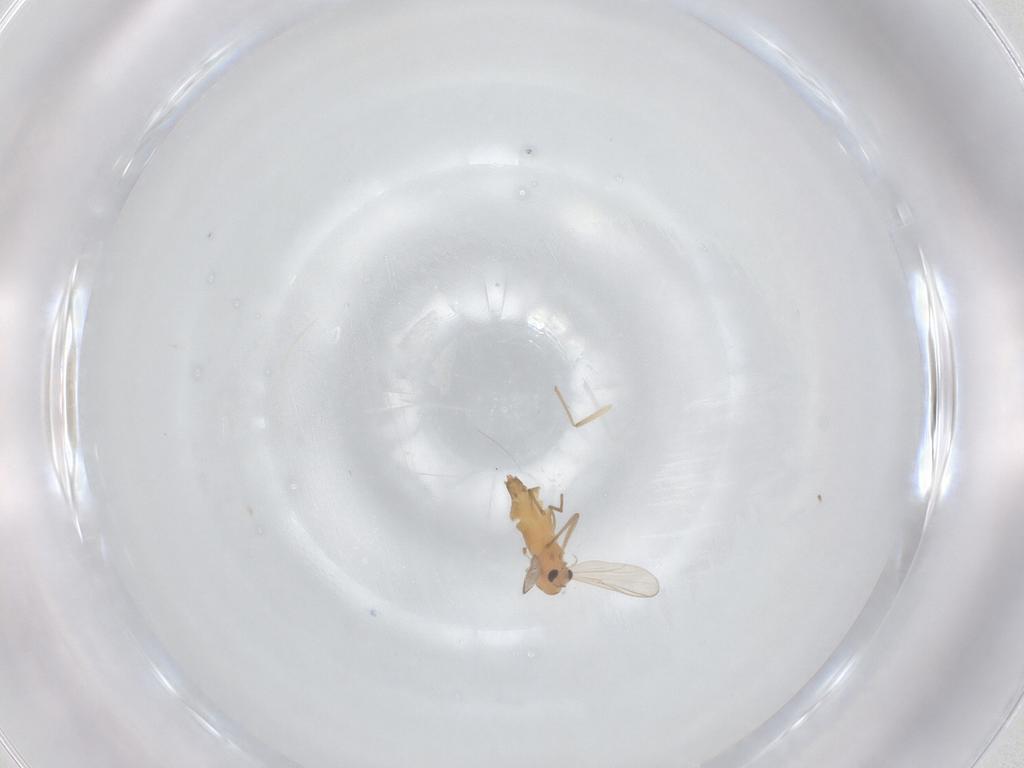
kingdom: Animalia
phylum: Arthropoda
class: Insecta
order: Diptera
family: Chironomidae
